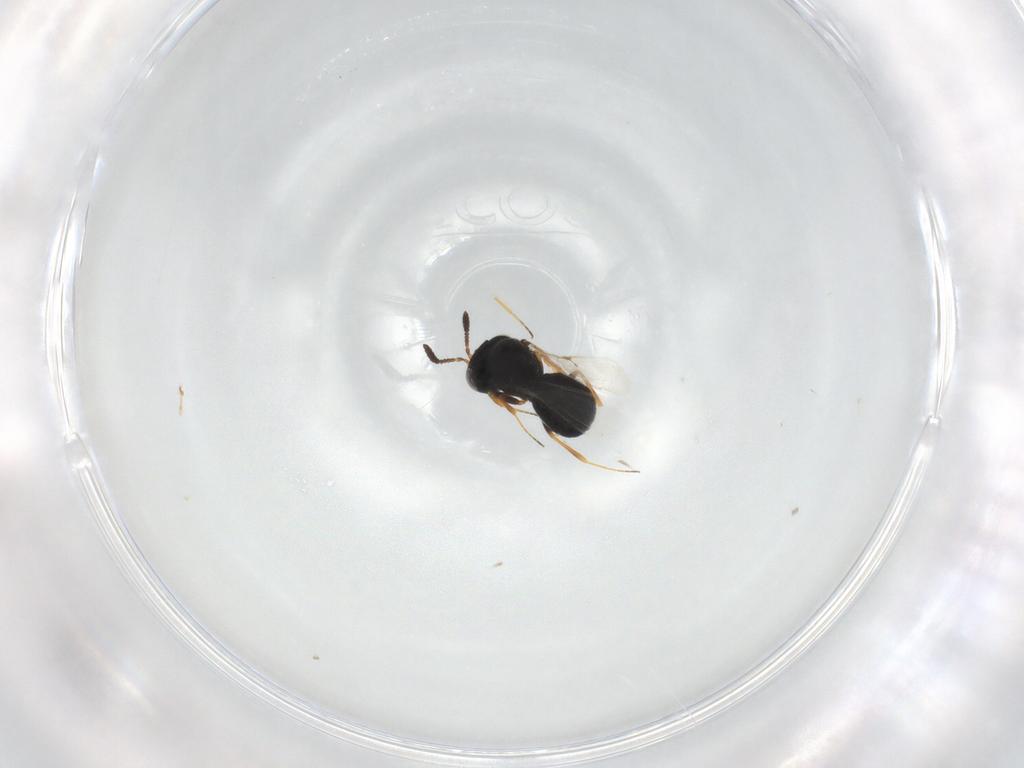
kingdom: Animalia
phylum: Arthropoda
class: Insecta
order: Hymenoptera
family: Scelionidae
